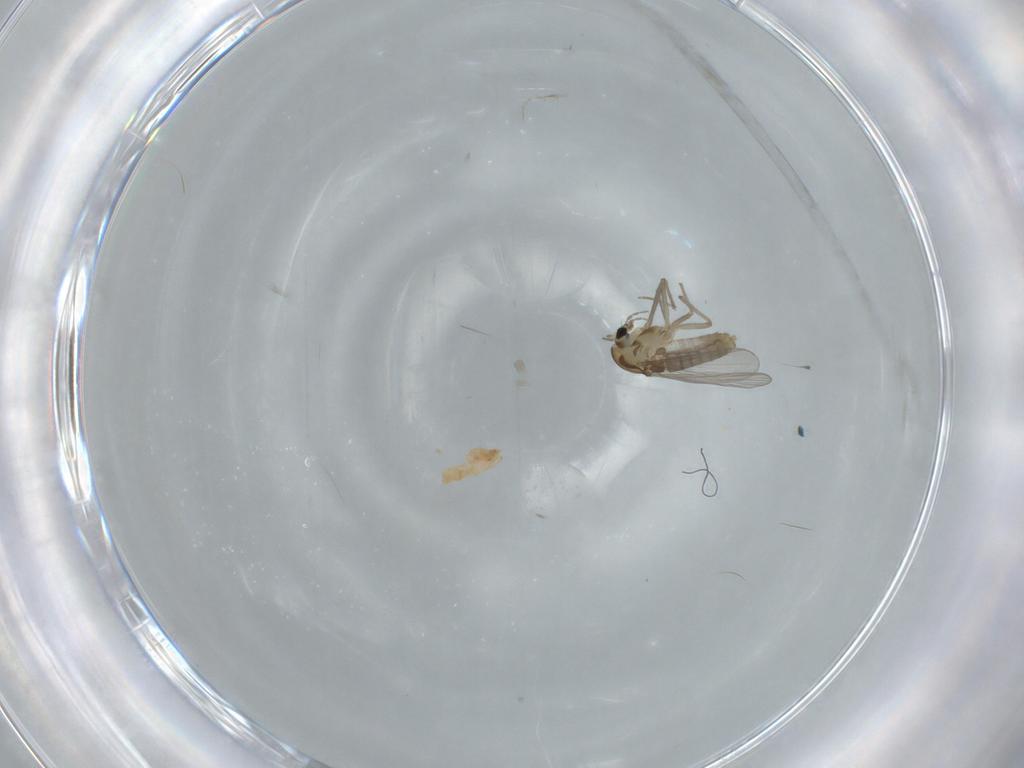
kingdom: Animalia
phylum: Arthropoda
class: Insecta
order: Diptera
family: Chironomidae
